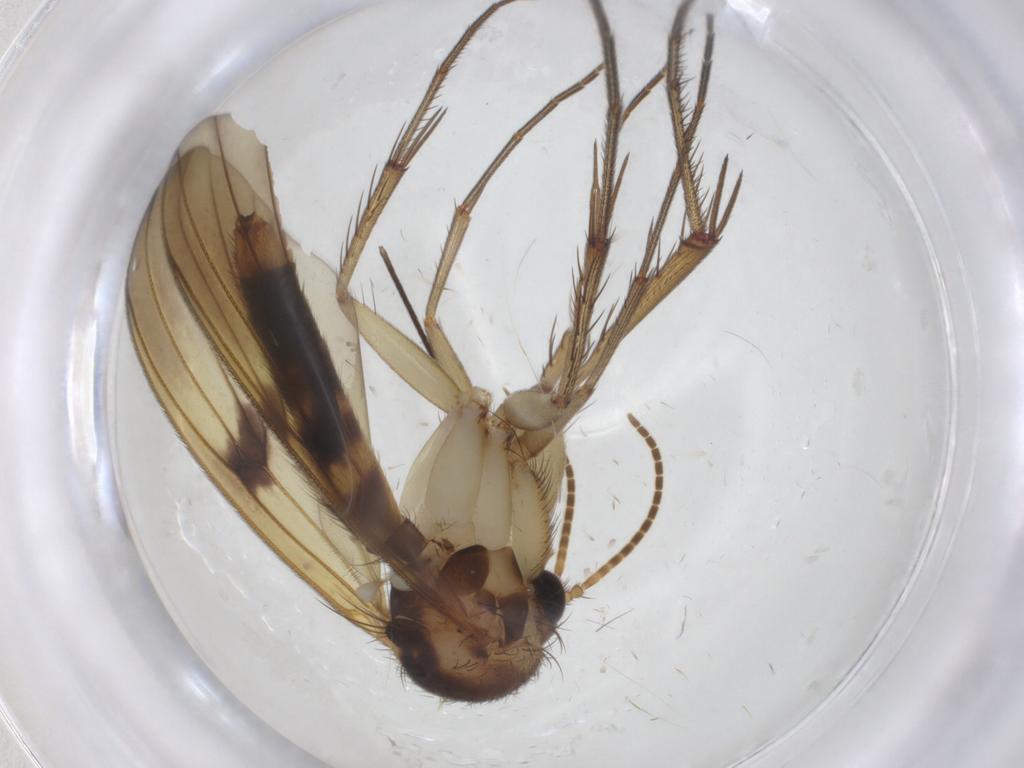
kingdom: Animalia
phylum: Arthropoda
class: Insecta
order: Diptera
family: Mycetophilidae
